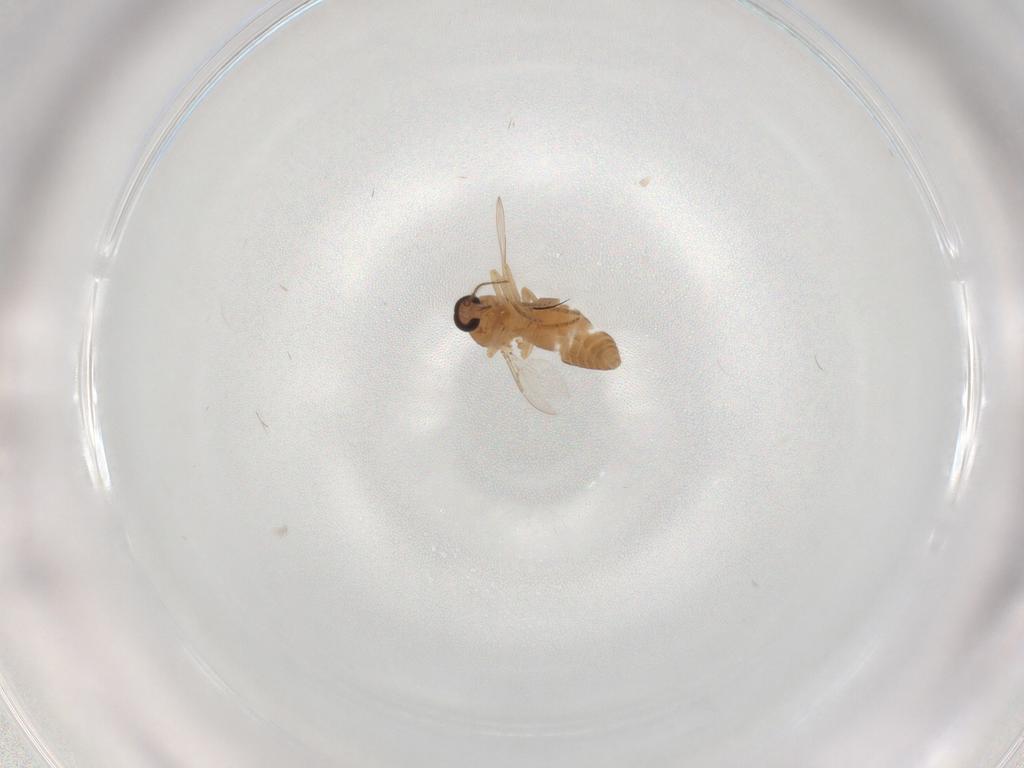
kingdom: Animalia
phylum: Arthropoda
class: Insecta
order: Diptera
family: Ceratopogonidae
